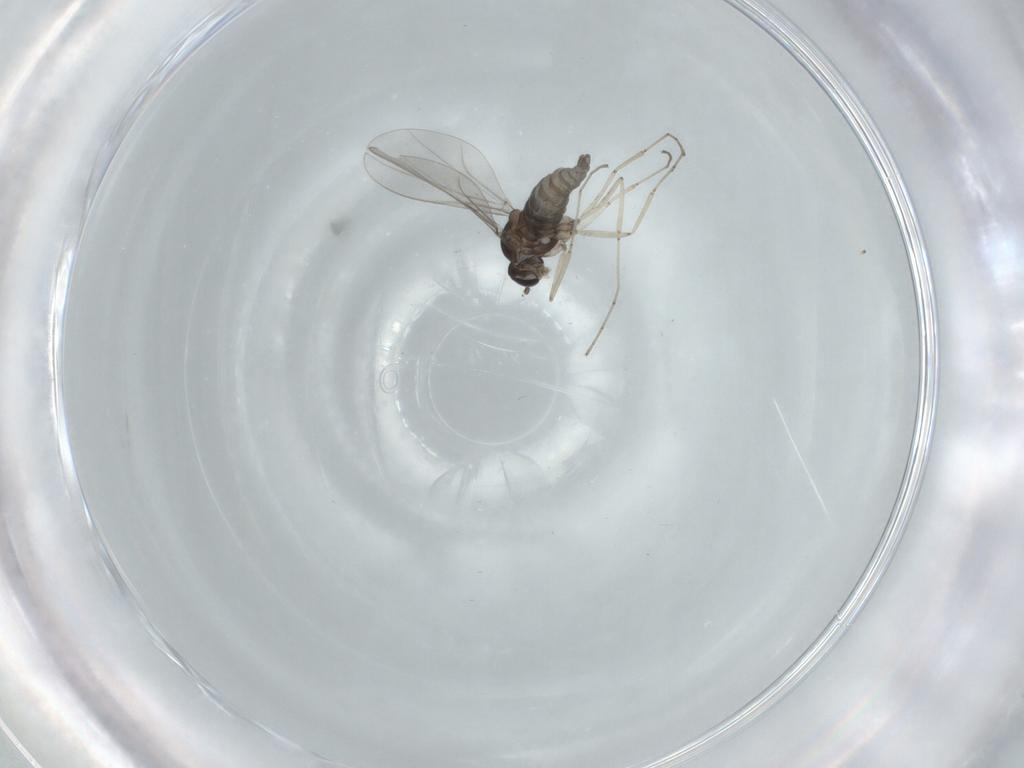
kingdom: Animalia
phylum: Arthropoda
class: Insecta
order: Diptera
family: Cecidomyiidae
